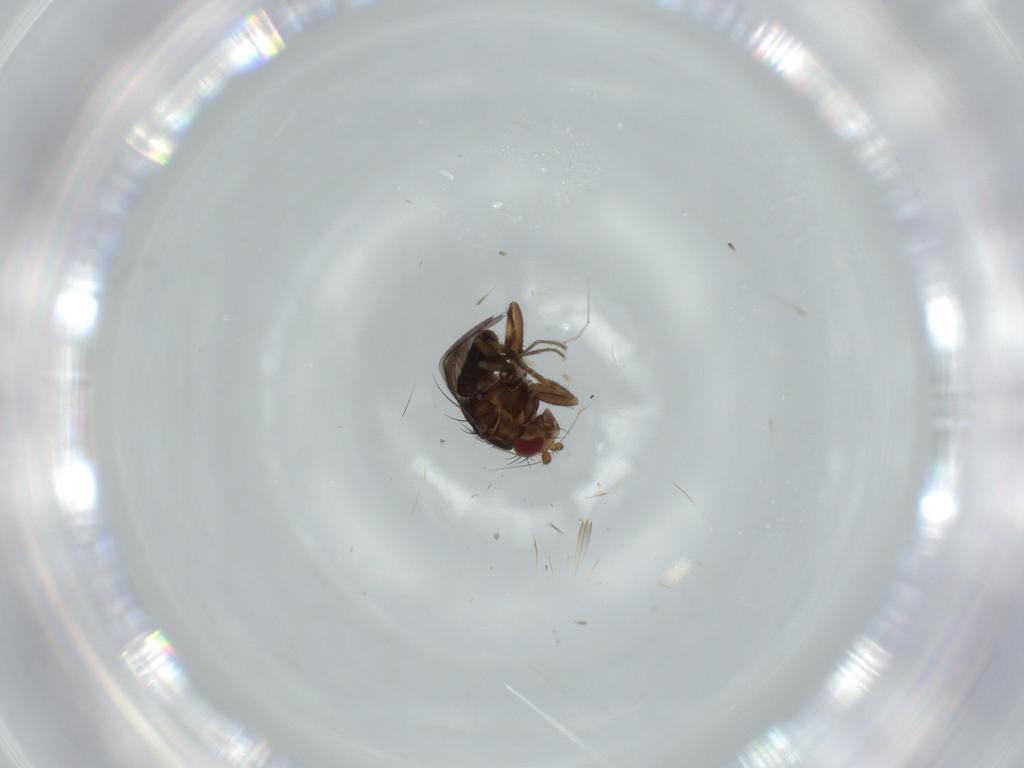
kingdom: Animalia
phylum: Arthropoda
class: Insecta
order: Diptera
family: Sphaeroceridae
